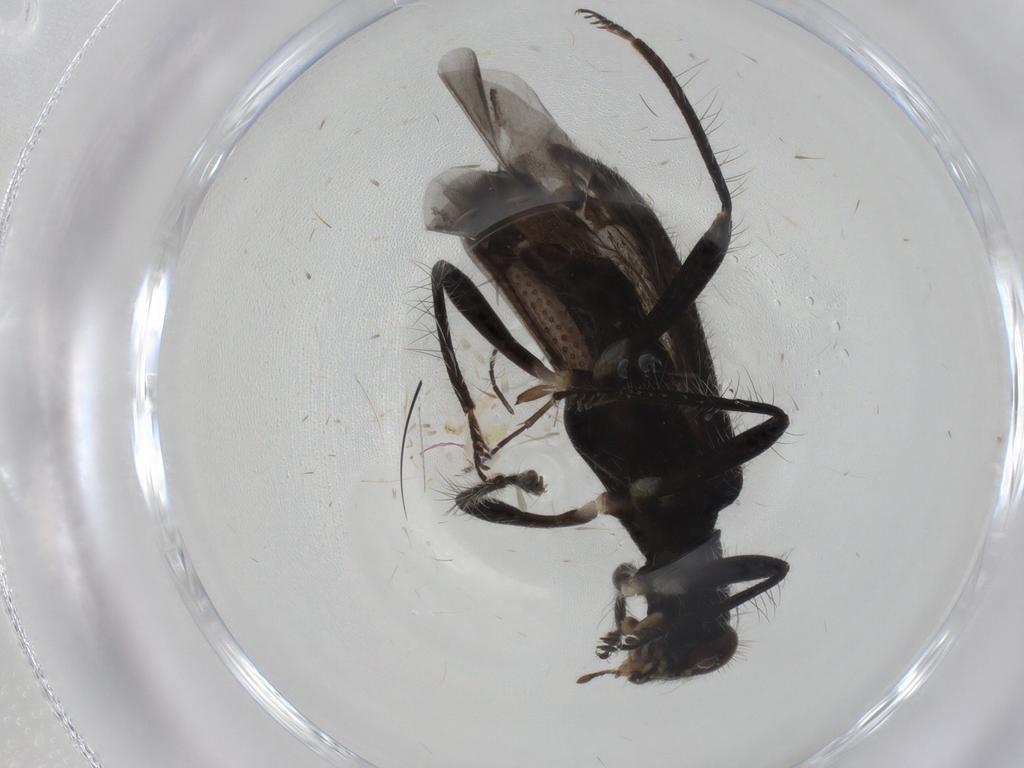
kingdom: Animalia
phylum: Arthropoda
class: Insecta
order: Coleoptera
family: Scarabaeidae
